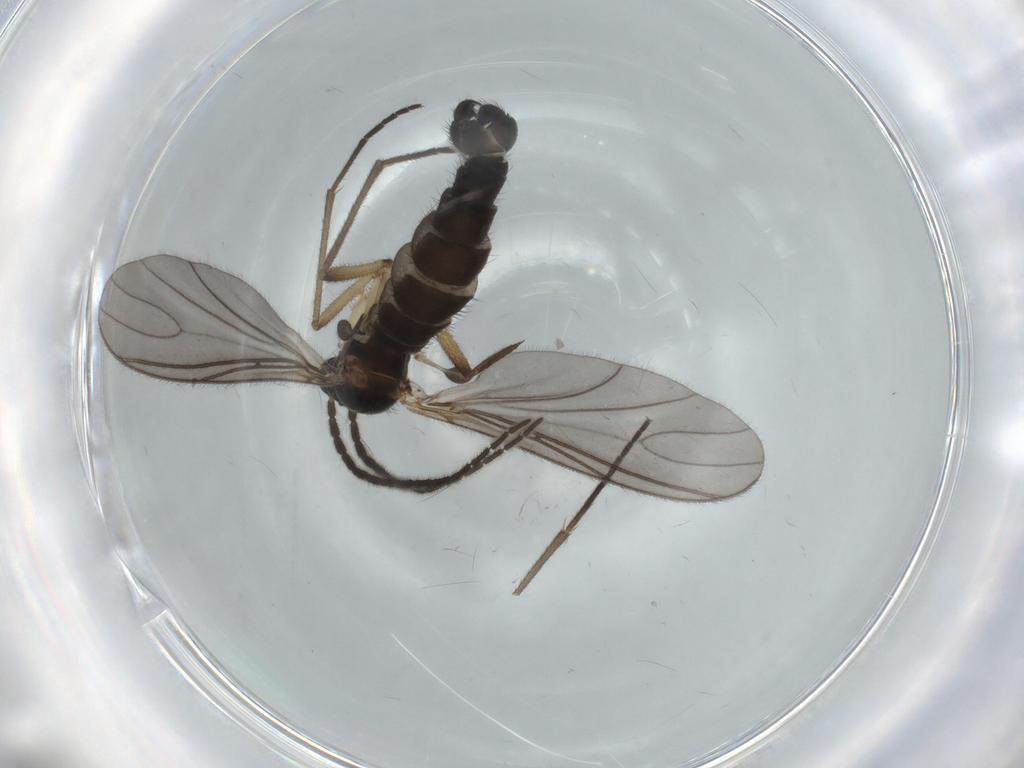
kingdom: Animalia
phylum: Arthropoda
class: Insecta
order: Diptera
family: Sciaridae
